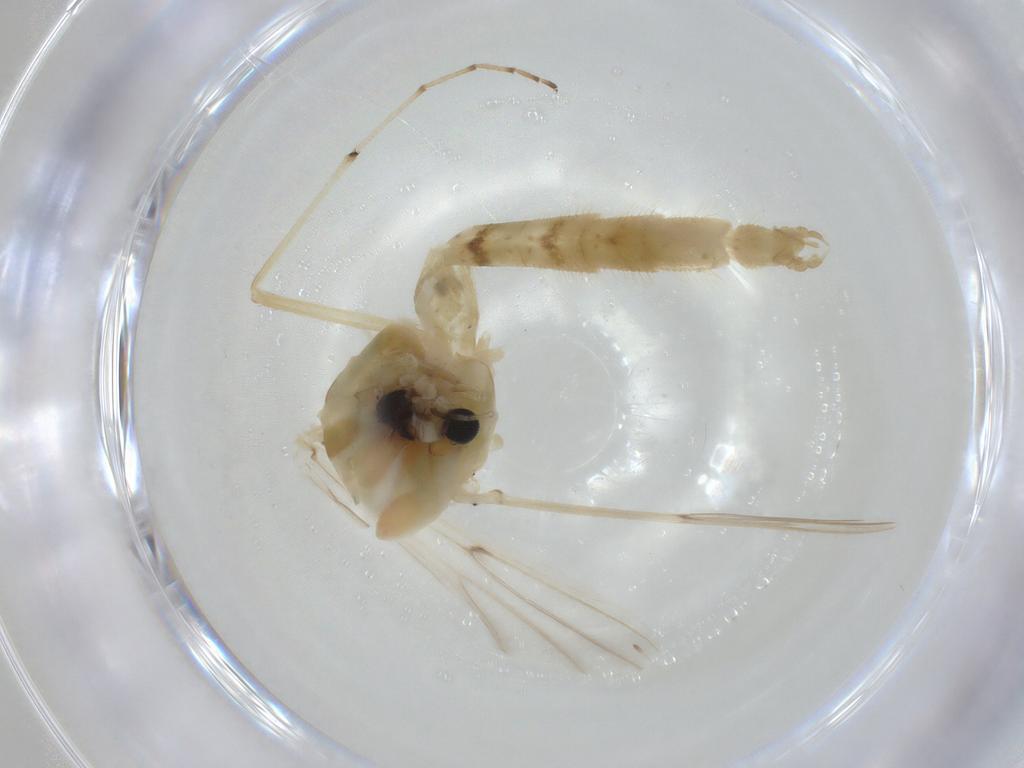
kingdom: Animalia
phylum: Arthropoda
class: Insecta
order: Diptera
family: Chironomidae
